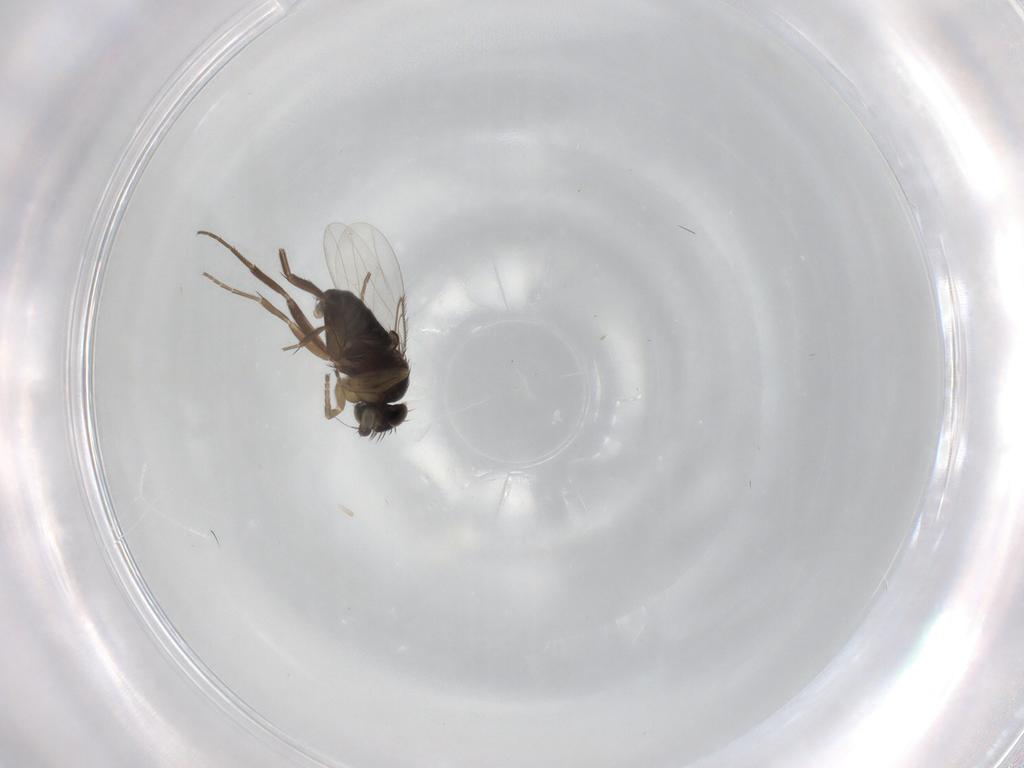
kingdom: Animalia
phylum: Arthropoda
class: Insecta
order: Diptera
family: Phoridae
